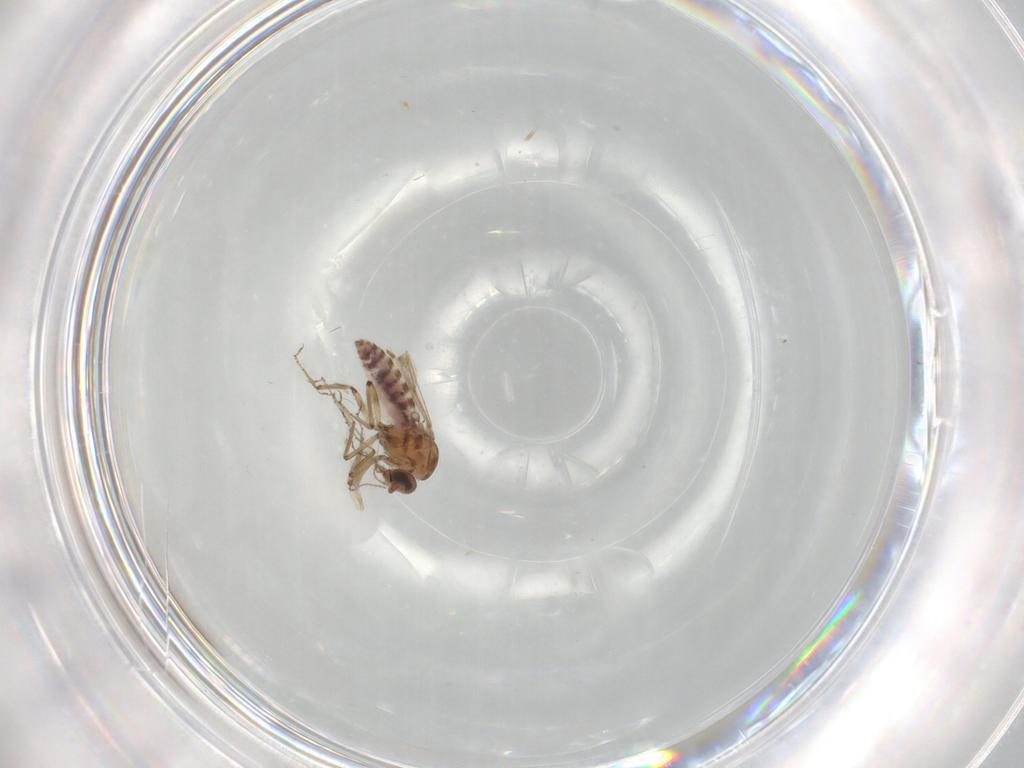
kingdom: Animalia
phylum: Arthropoda
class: Insecta
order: Diptera
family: Ceratopogonidae
